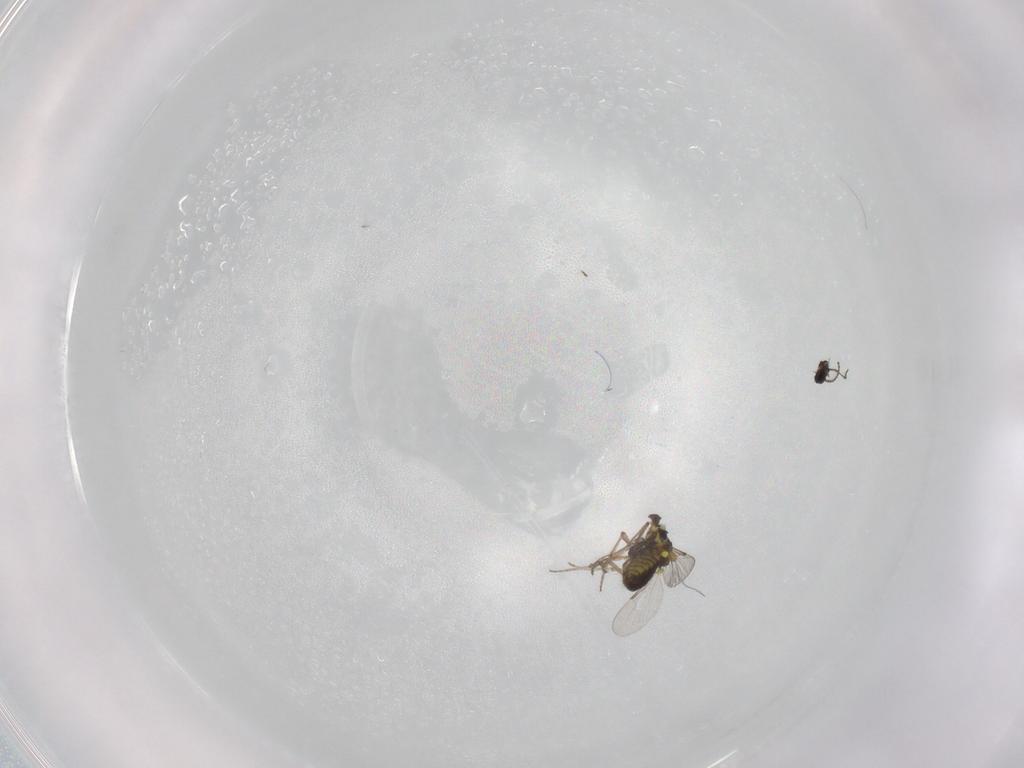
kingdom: Animalia
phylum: Arthropoda
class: Insecta
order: Diptera
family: Ceratopogonidae
